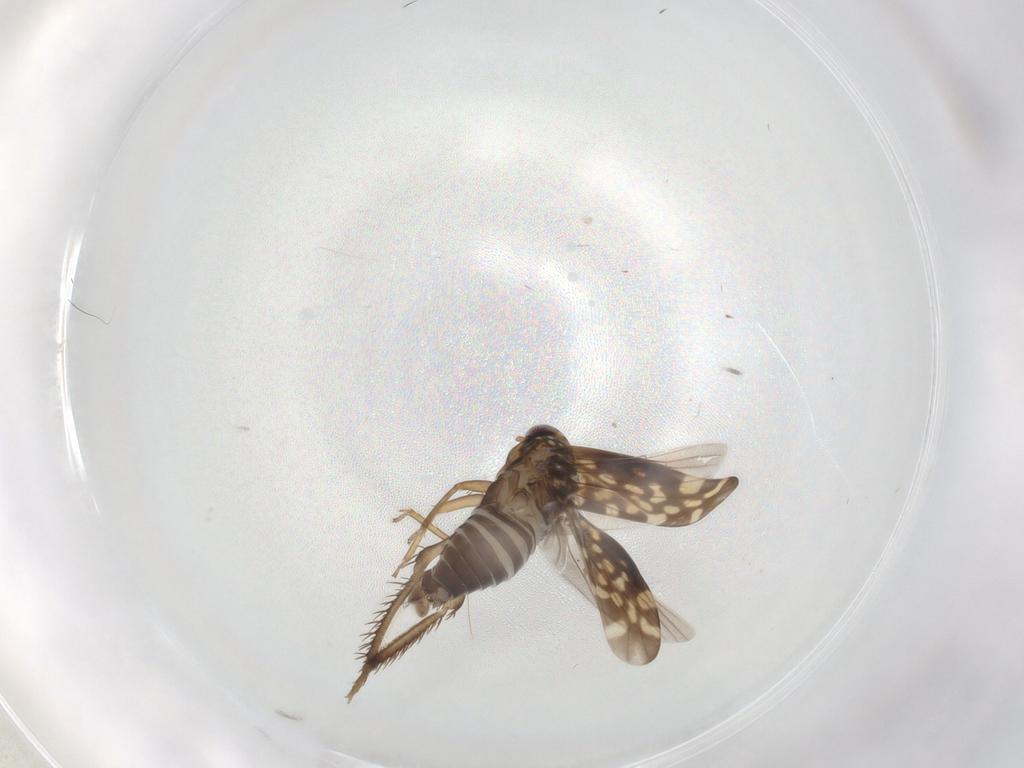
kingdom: Animalia
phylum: Arthropoda
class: Insecta
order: Hemiptera
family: Cicadellidae
